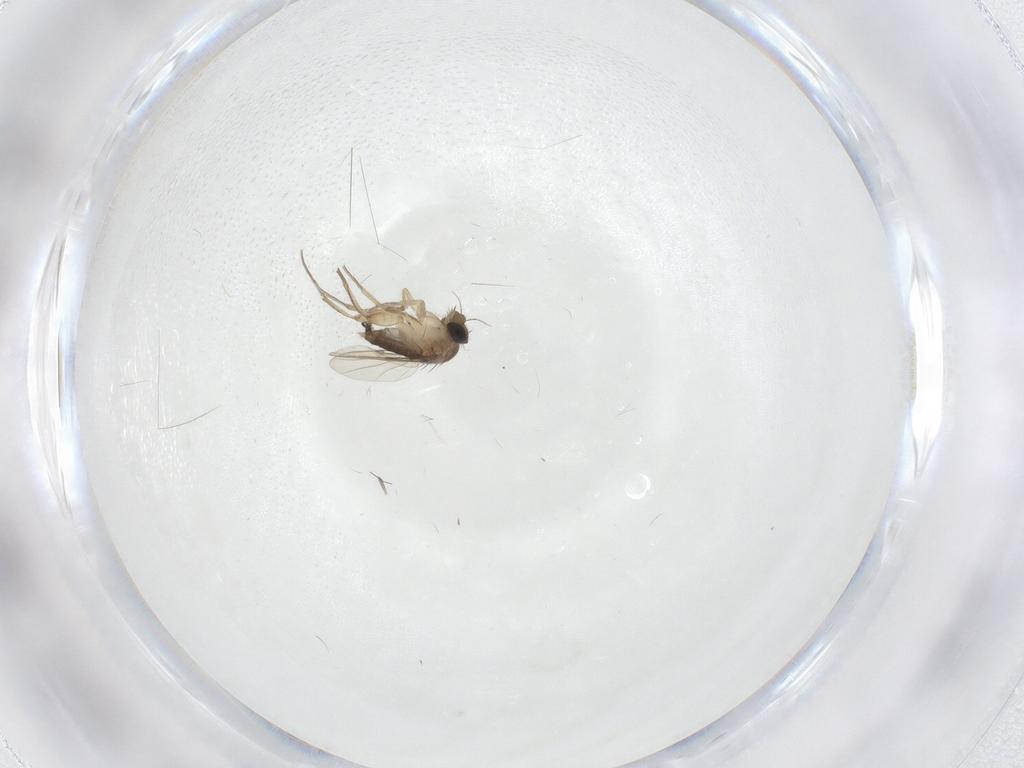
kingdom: Animalia
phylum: Arthropoda
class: Insecta
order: Diptera
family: Phoridae
